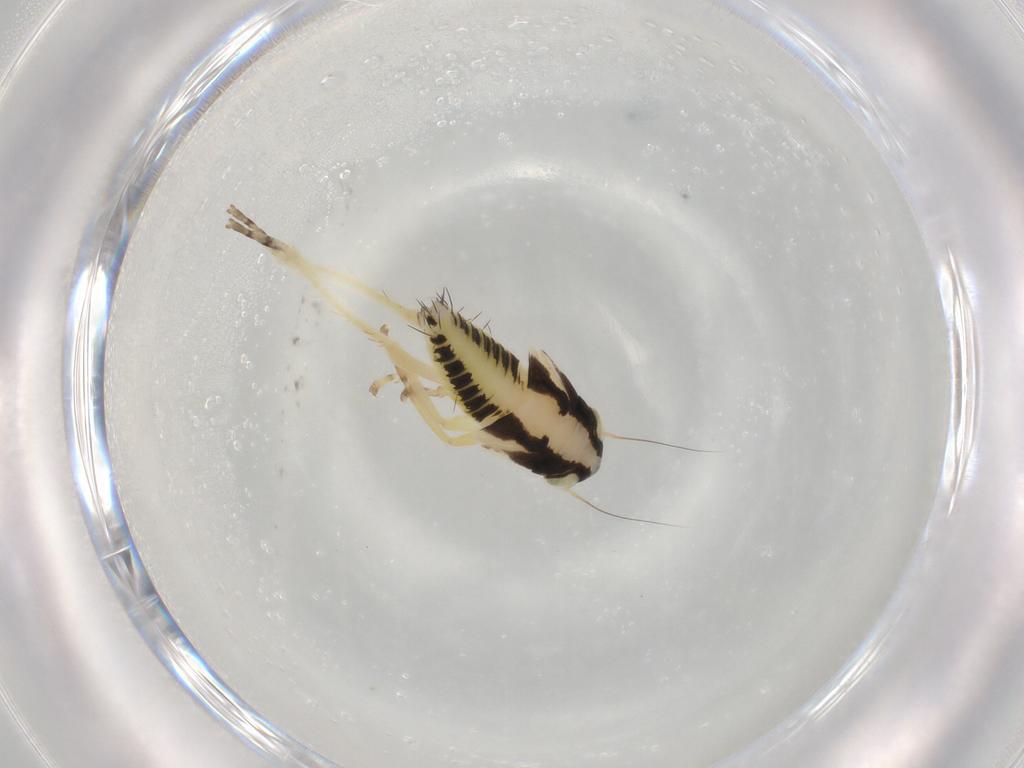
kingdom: Animalia
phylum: Arthropoda
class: Insecta
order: Hemiptera
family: Cicadellidae
